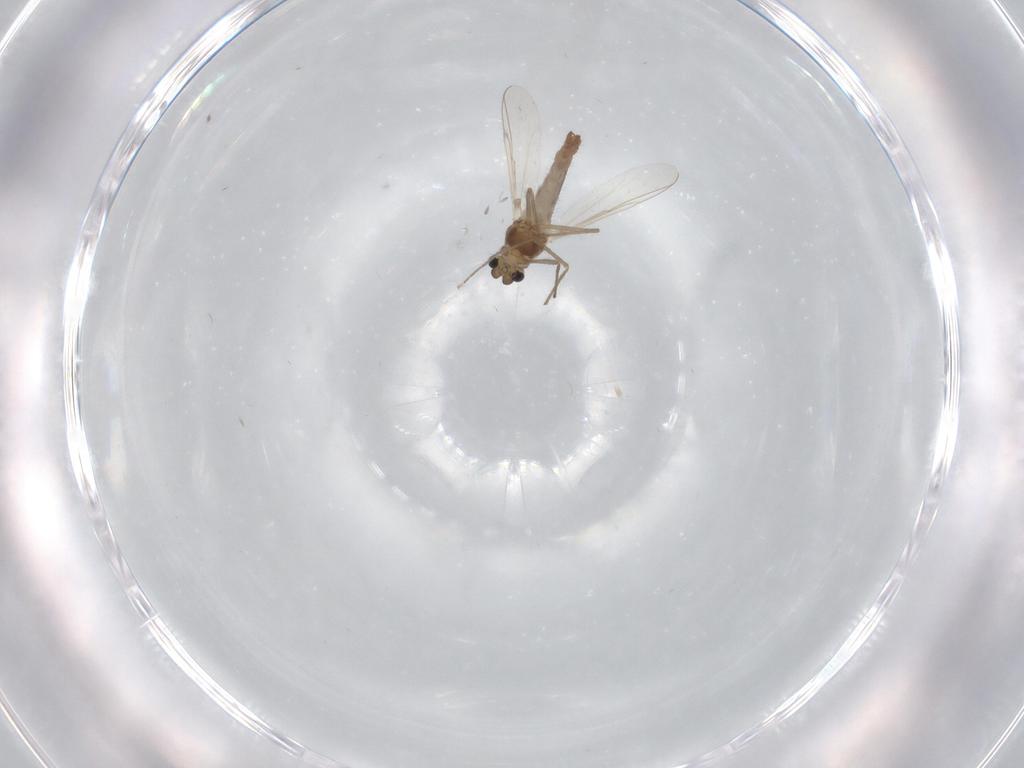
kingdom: Animalia
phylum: Arthropoda
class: Insecta
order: Diptera
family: Chironomidae
